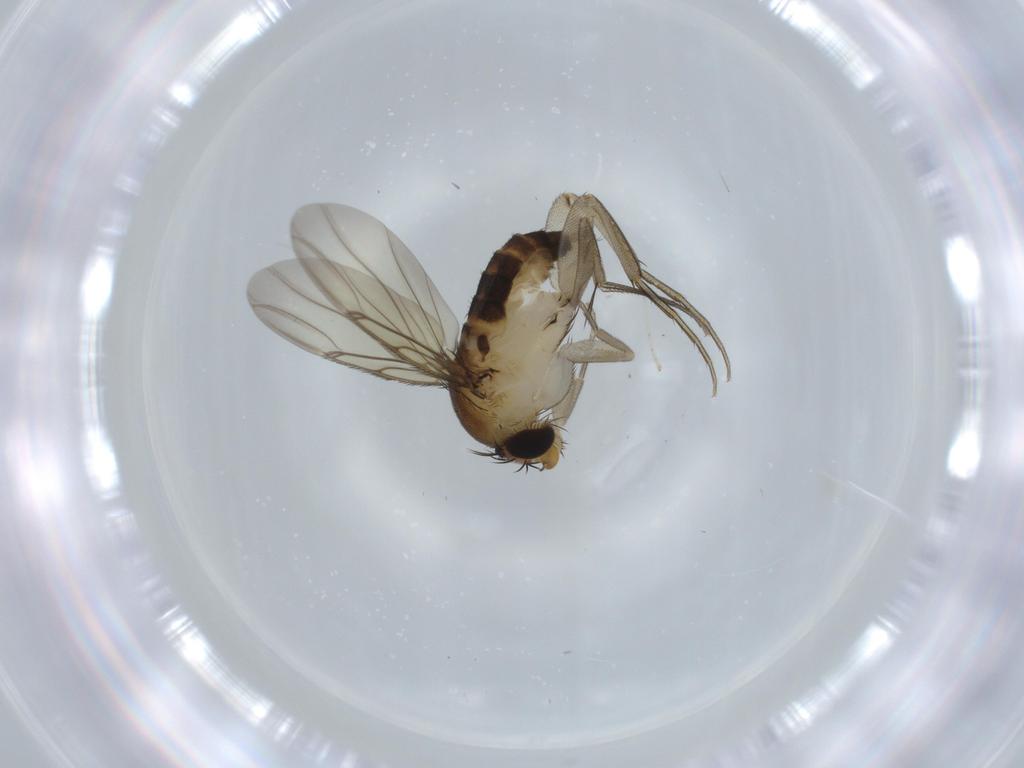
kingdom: Animalia
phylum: Arthropoda
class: Insecta
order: Diptera
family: Phoridae
